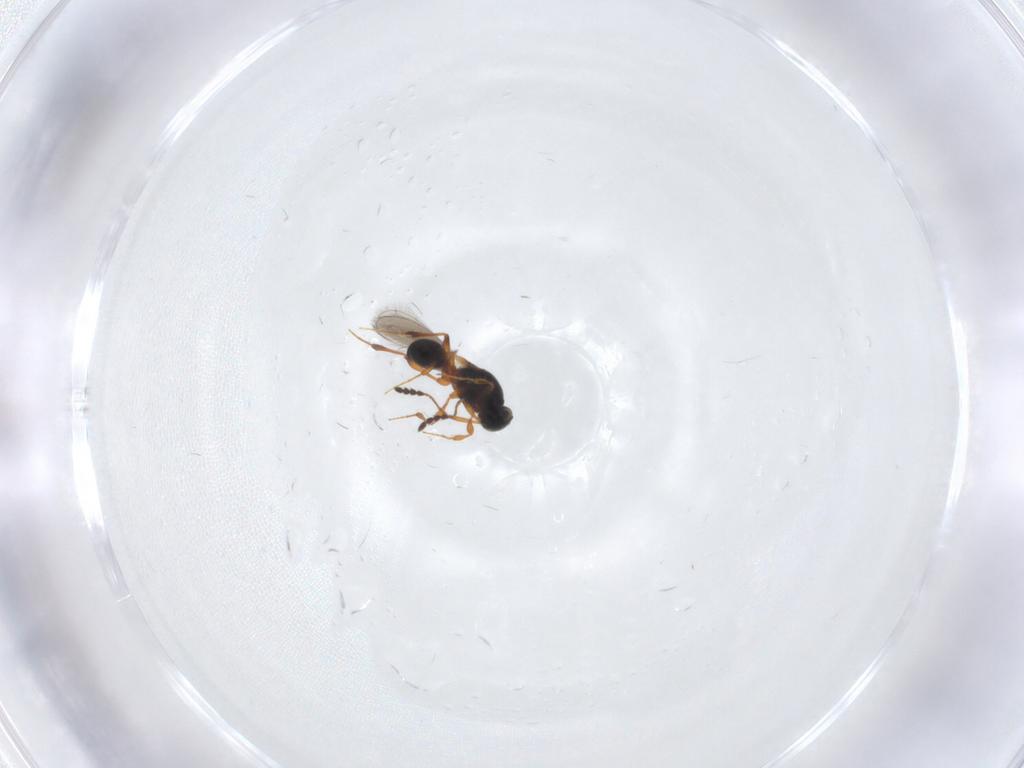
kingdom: Animalia
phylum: Arthropoda
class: Insecta
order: Hymenoptera
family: Platygastridae
